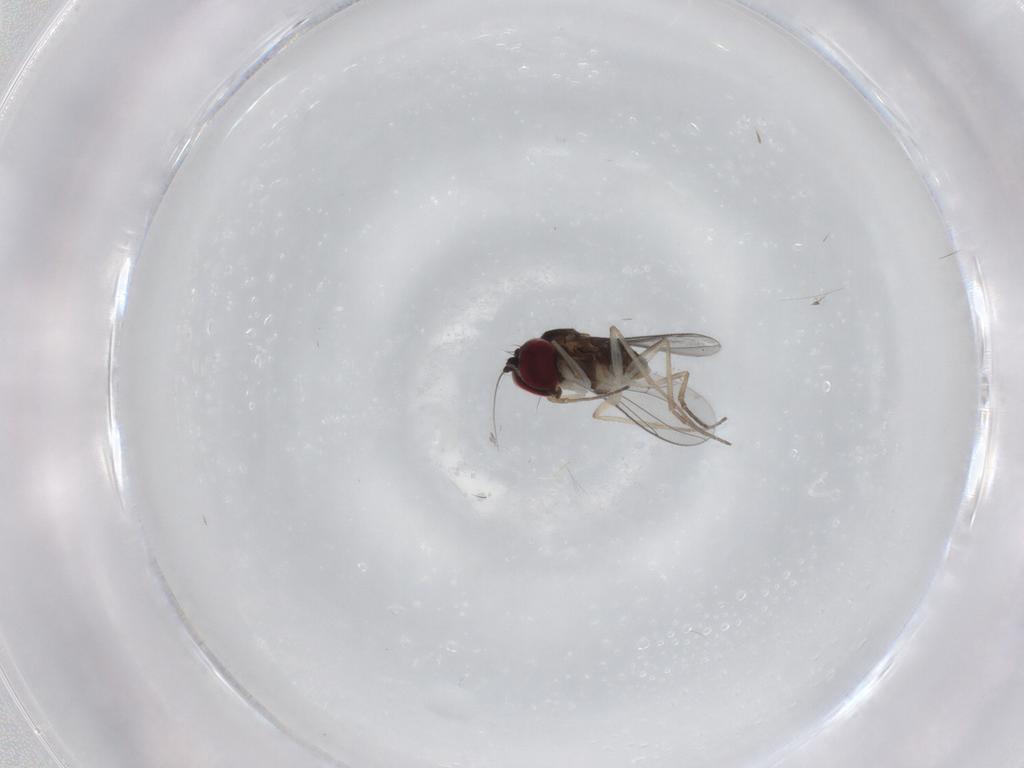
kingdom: Animalia
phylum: Arthropoda
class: Insecta
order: Diptera
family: Dolichopodidae
